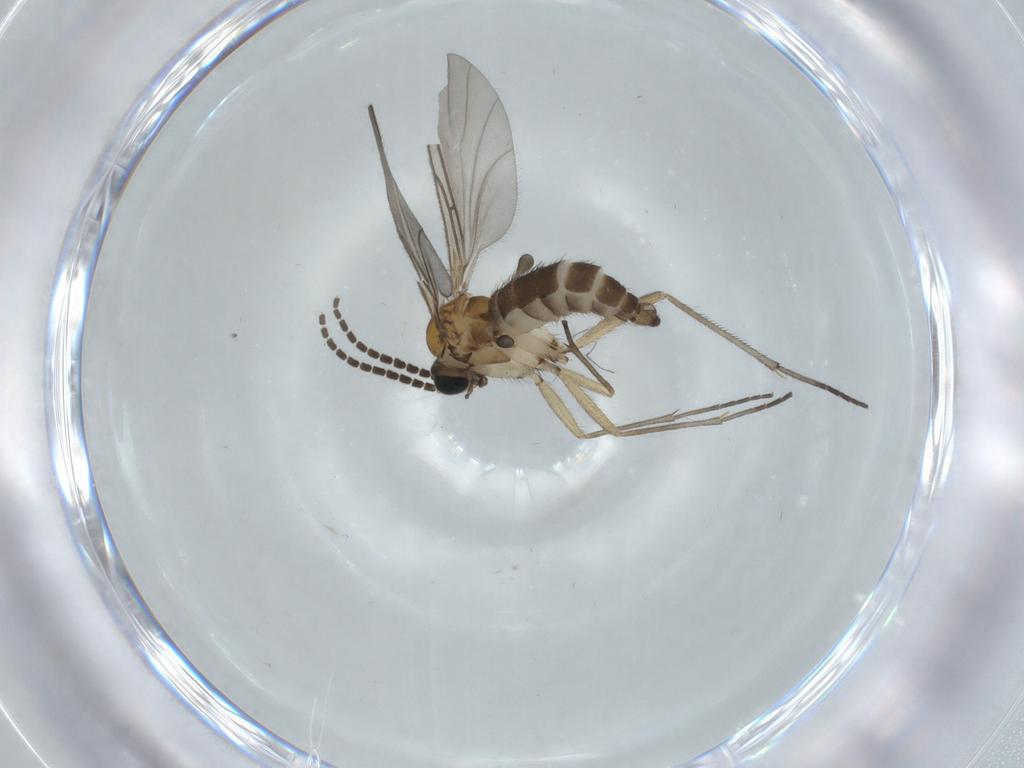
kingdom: Animalia
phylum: Arthropoda
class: Insecta
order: Diptera
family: Sciaridae
